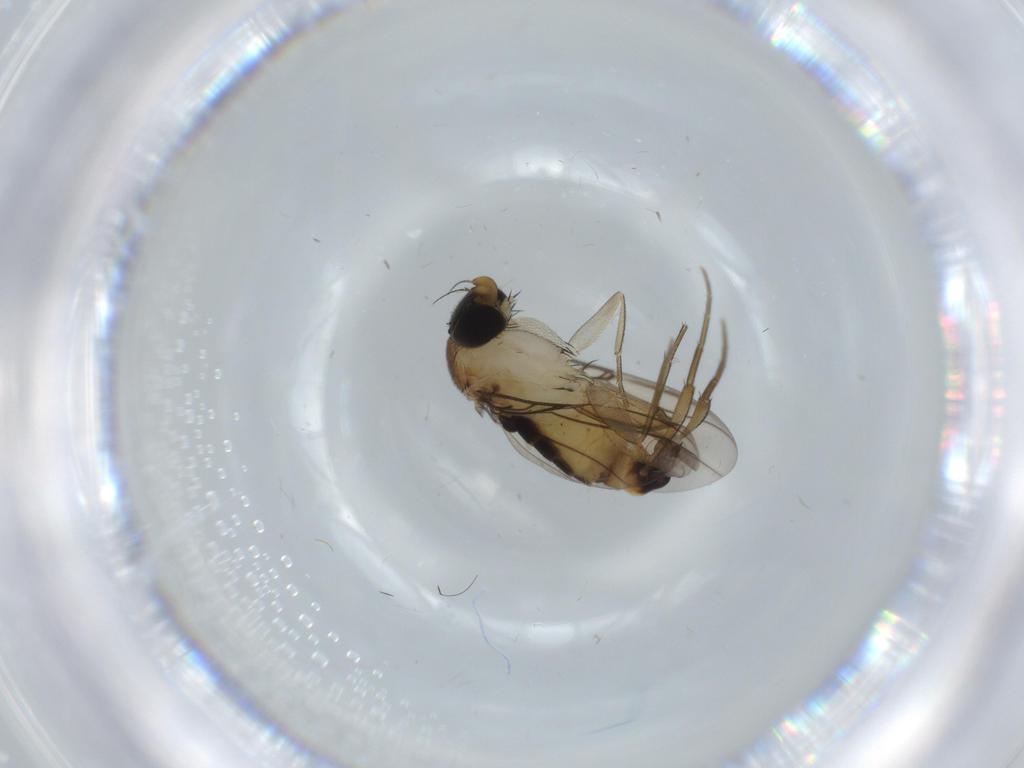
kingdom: Animalia
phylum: Arthropoda
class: Insecta
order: Diptera
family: Phoridae
